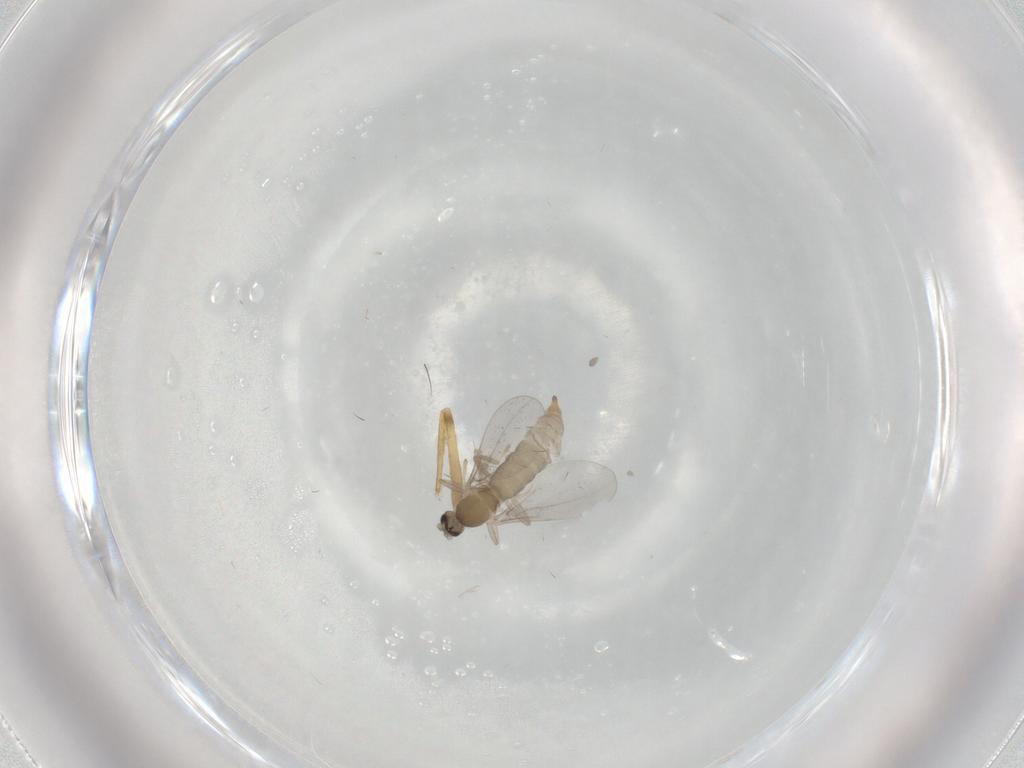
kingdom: Animalia
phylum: Arthropoda
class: Insecta
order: Diptera
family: Cecidomyiidae
